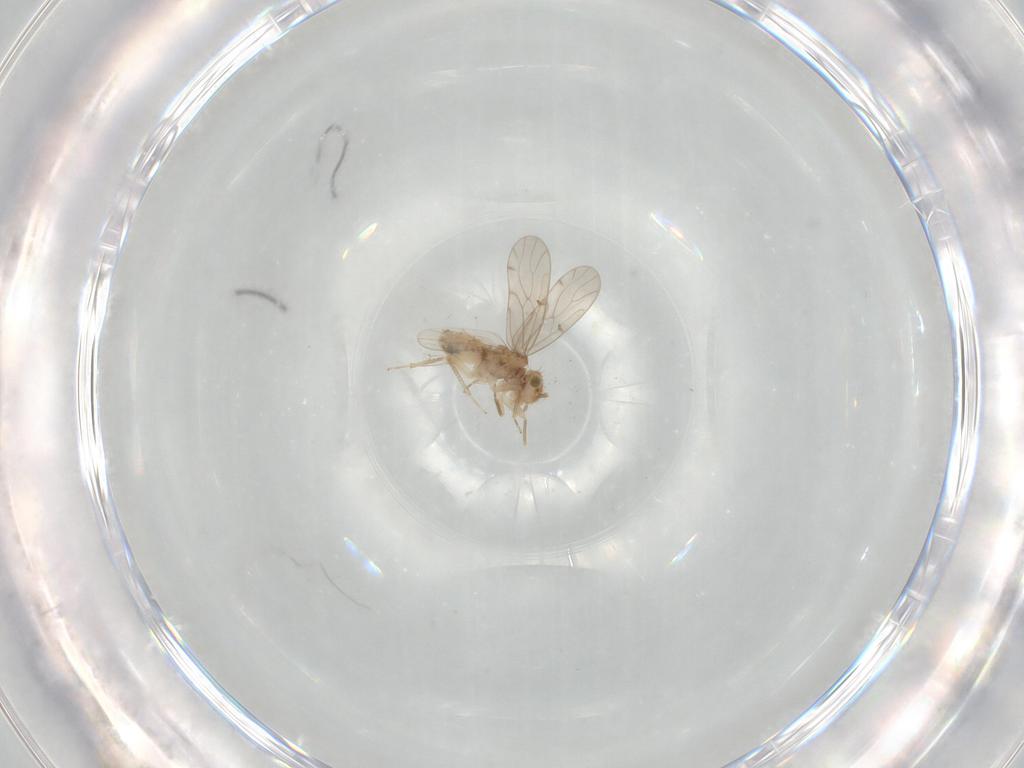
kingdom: Animalia
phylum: Arthropoda
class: Insecta
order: Psocodea
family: Ectopsocidae
